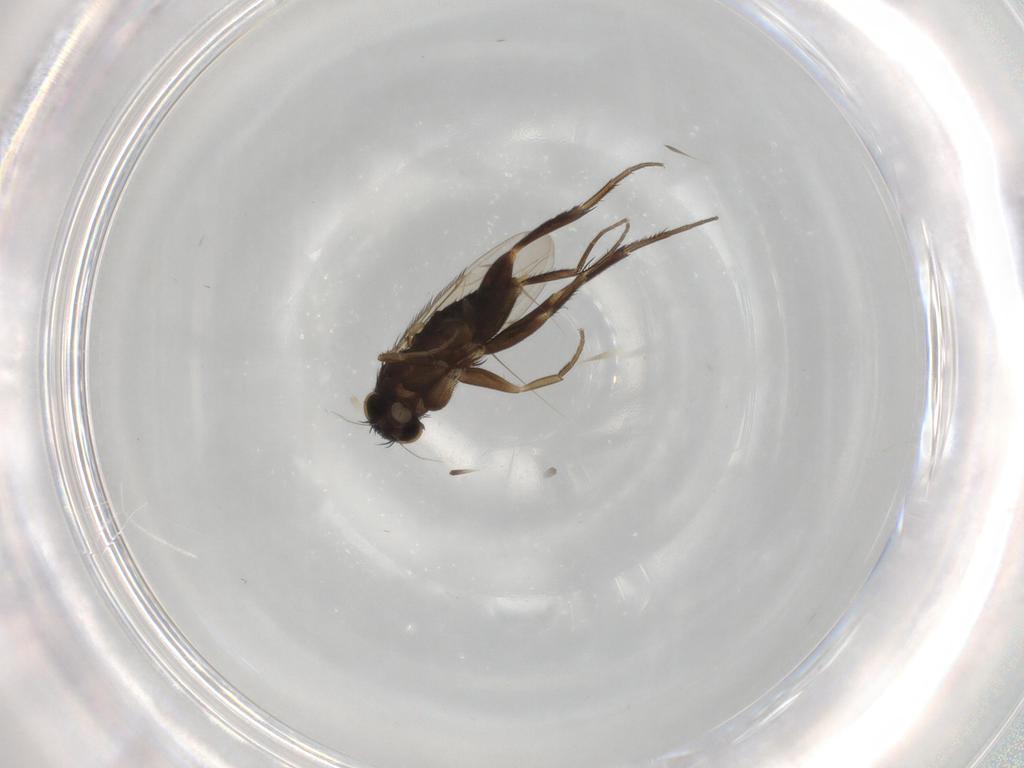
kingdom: Animalia
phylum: Arthropoda
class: Insecta
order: Diptera
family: Phoridae
